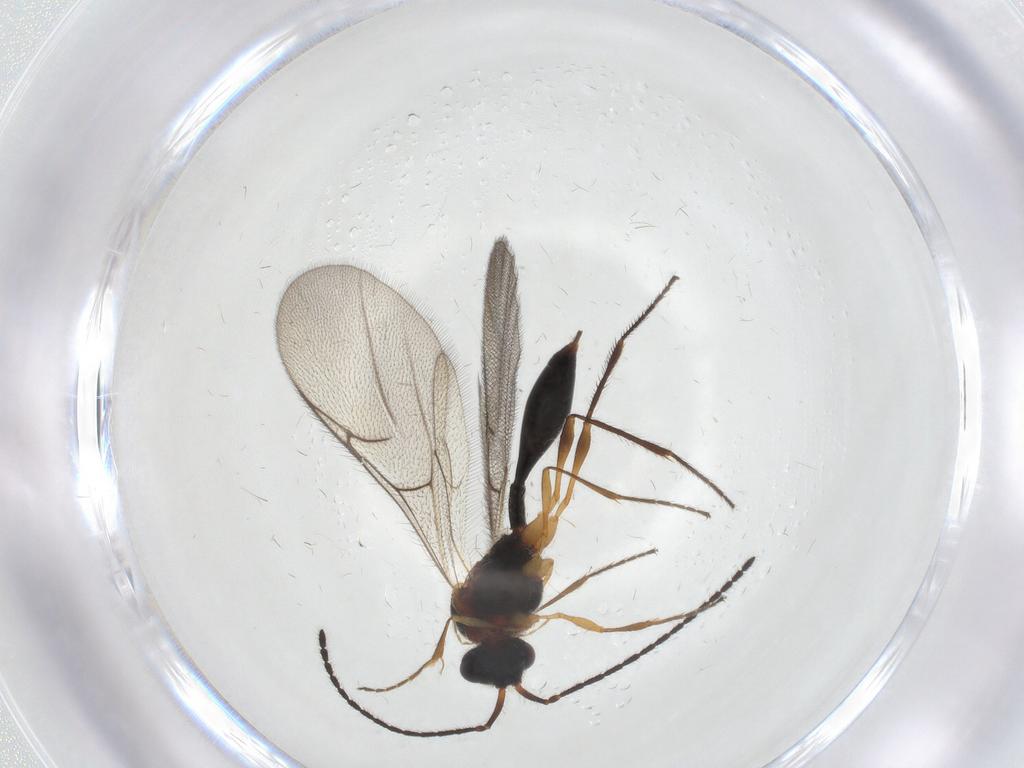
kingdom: Animalia
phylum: Arthropoda
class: Insecta
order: Hymenoptera
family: Diapriidae
